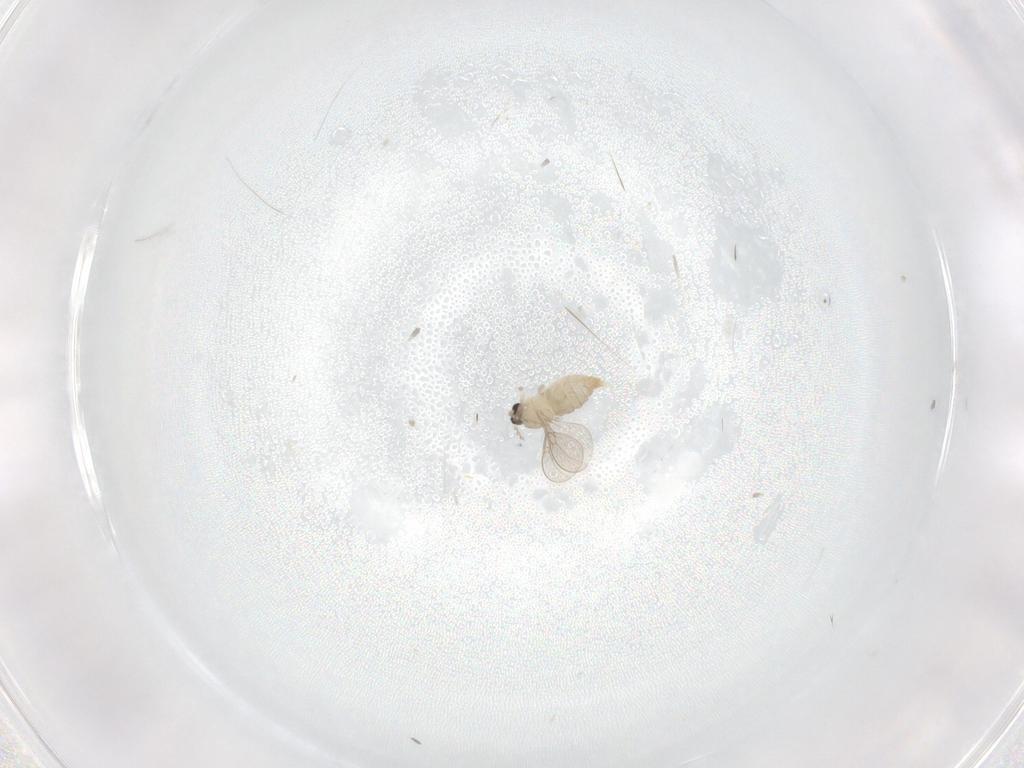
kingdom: Animalia
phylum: Arthropoda
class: Insecta
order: Diptera
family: Cecidomyiidae
